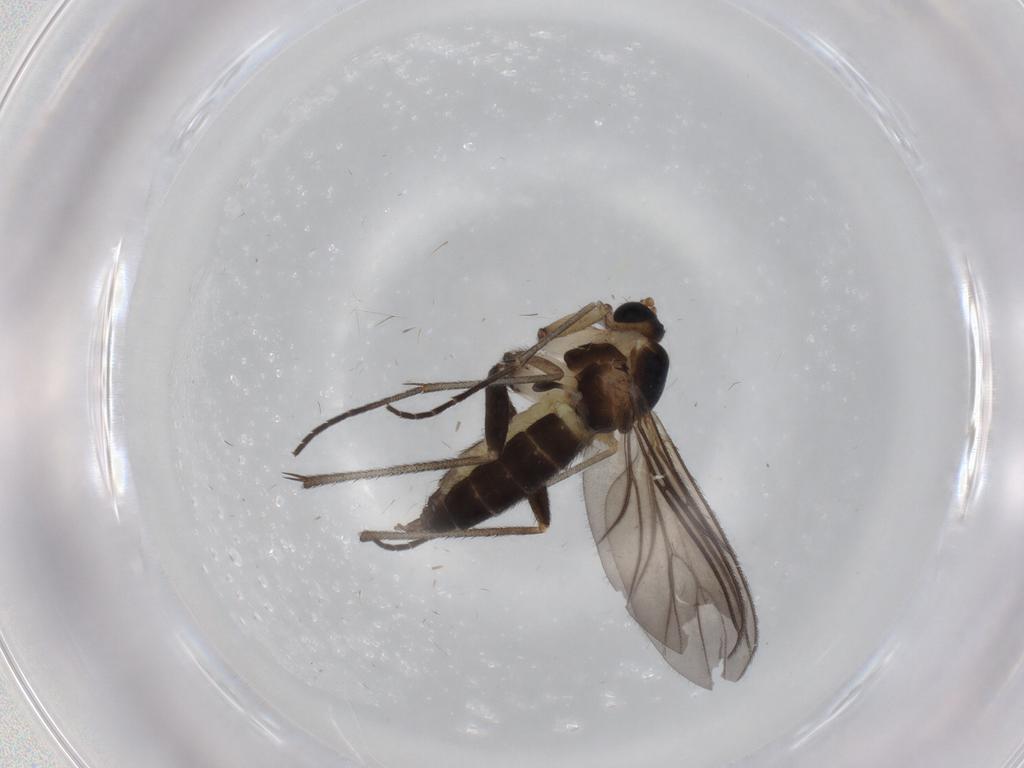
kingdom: Animalia
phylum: Arthropoda
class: Insecta
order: Diptera
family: Sciaridae
